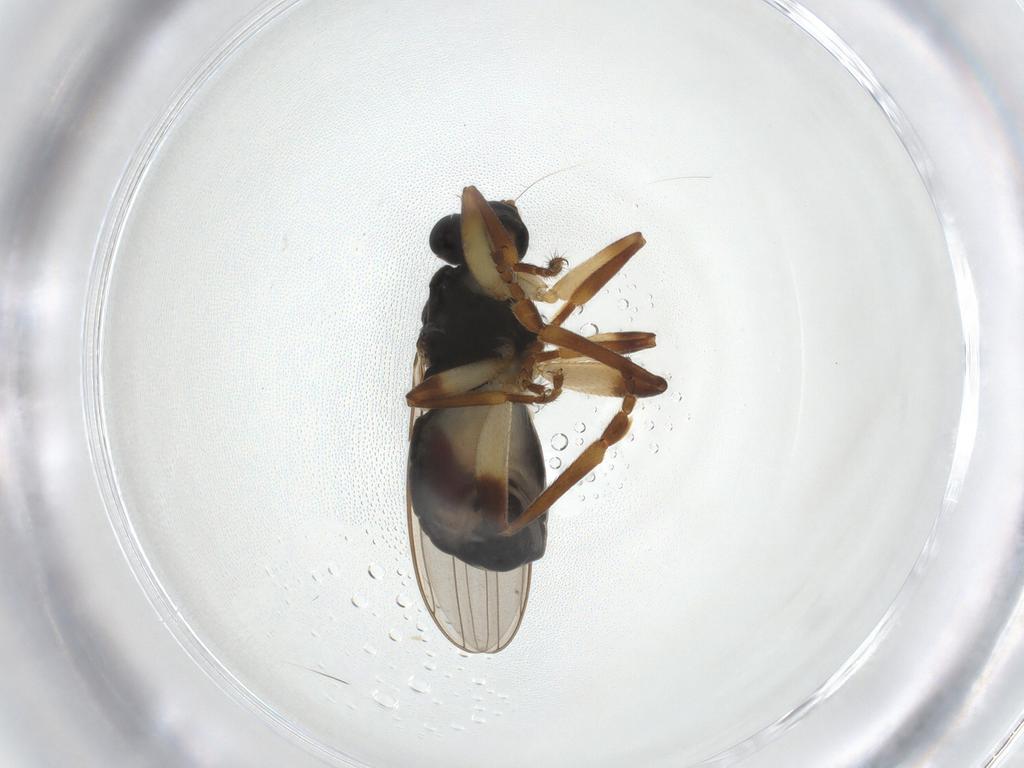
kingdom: Animalia
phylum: Arthropoda
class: Insecta
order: Diptera
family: Sphaeroceridae
